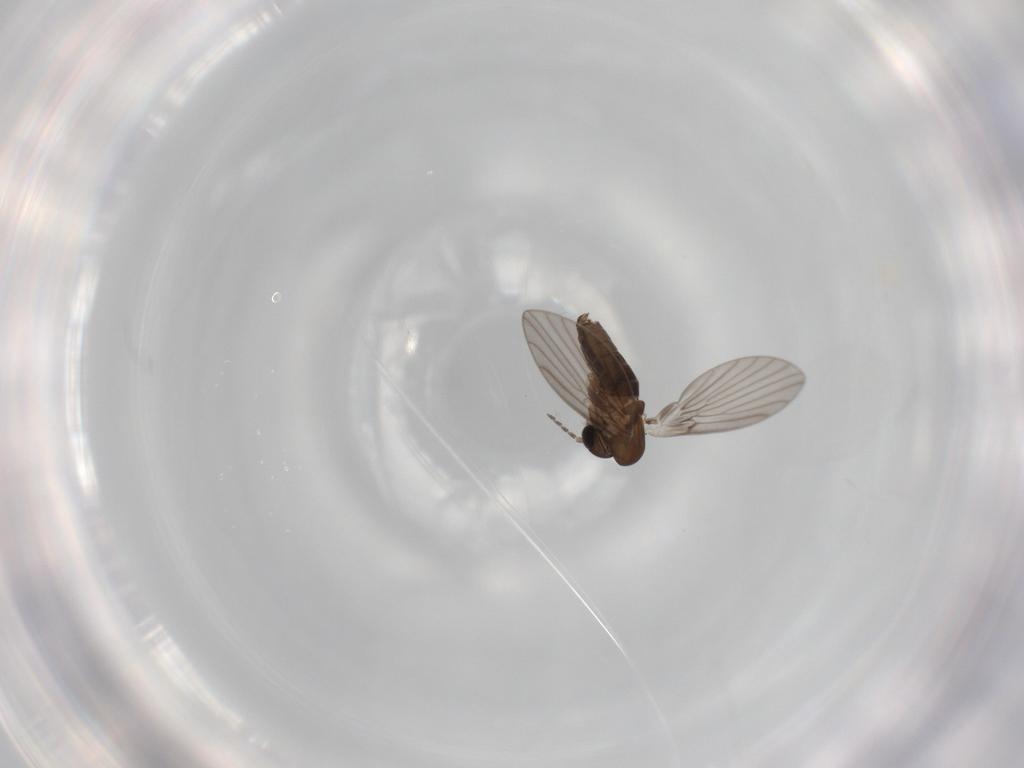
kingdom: Animalia
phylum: Arthropoda
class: Insecta
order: Diptera
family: Psychodidae
